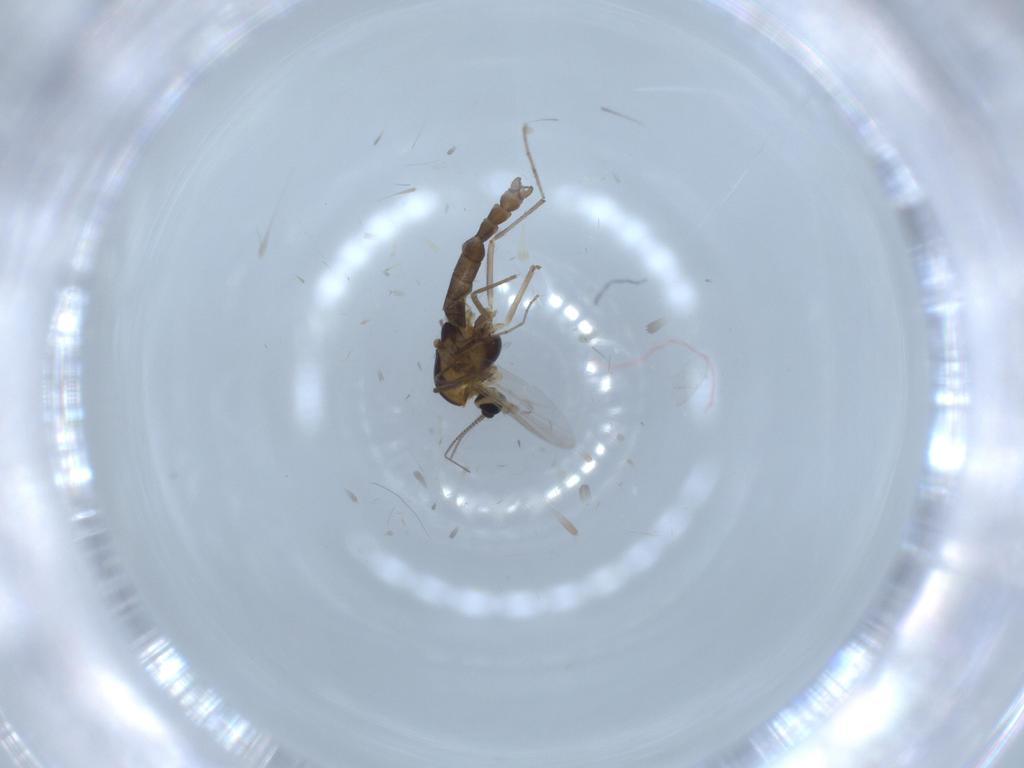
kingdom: Animalia
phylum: Arthropoda
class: Insecta
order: Diptera
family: Chironomidae
